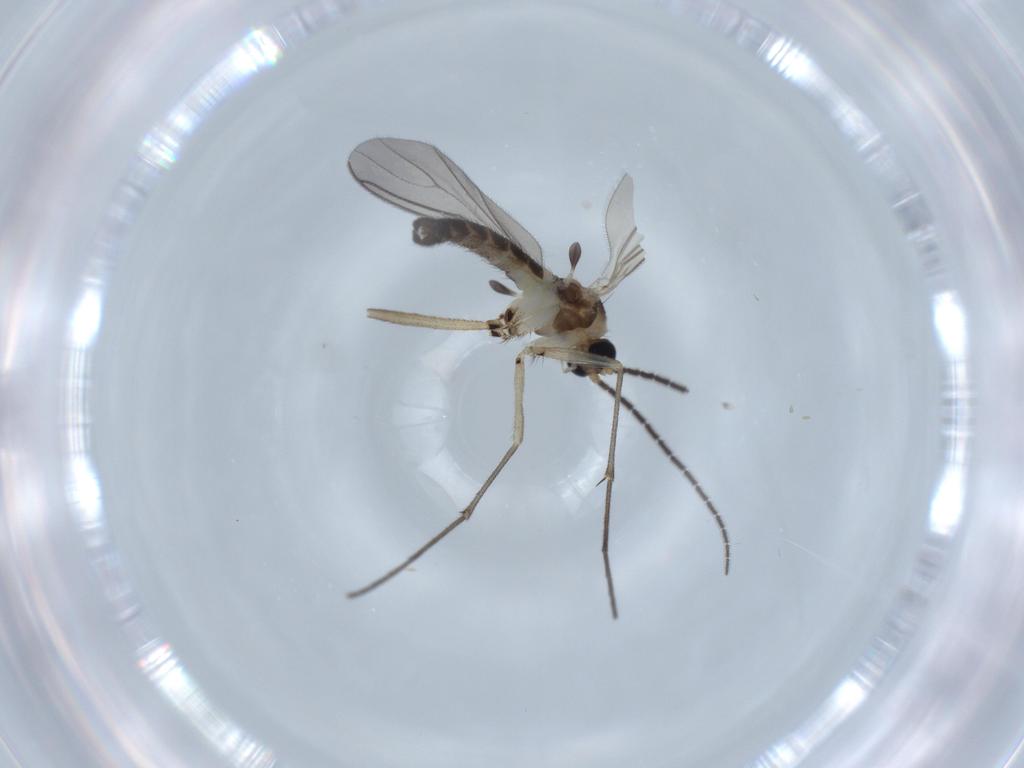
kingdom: Animalia
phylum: Arthropoda
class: Insecta
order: Diptera
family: Sciaridae
